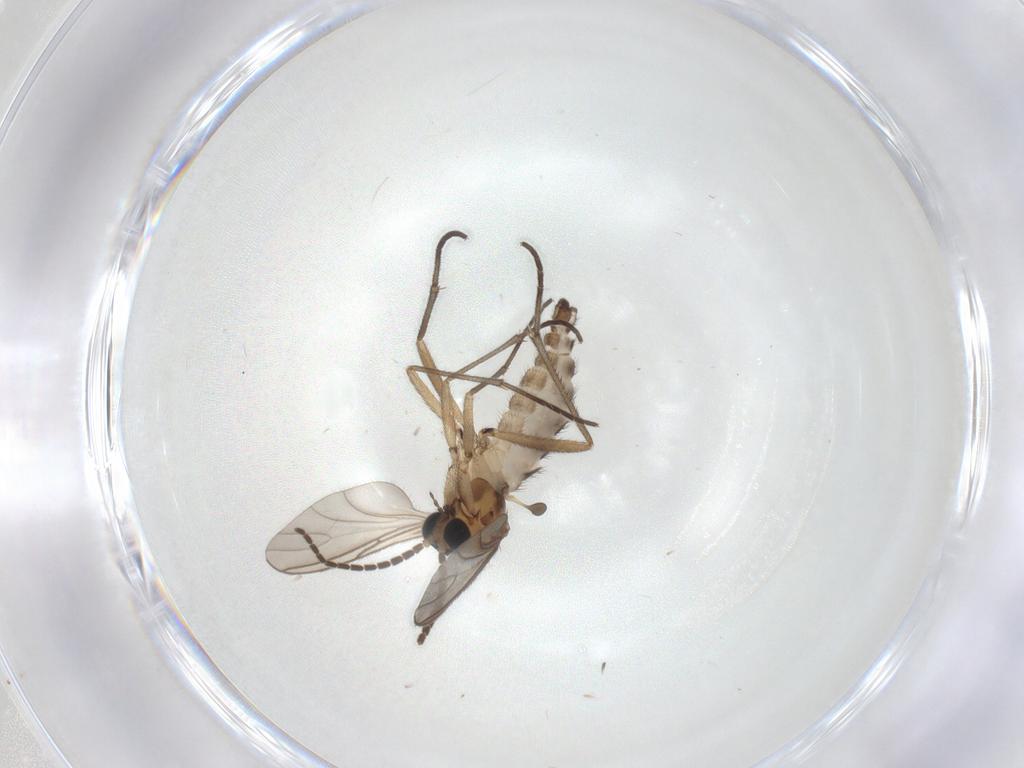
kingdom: Animalia
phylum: Arthropoda
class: Insecta
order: Diptera
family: Sciaridae
